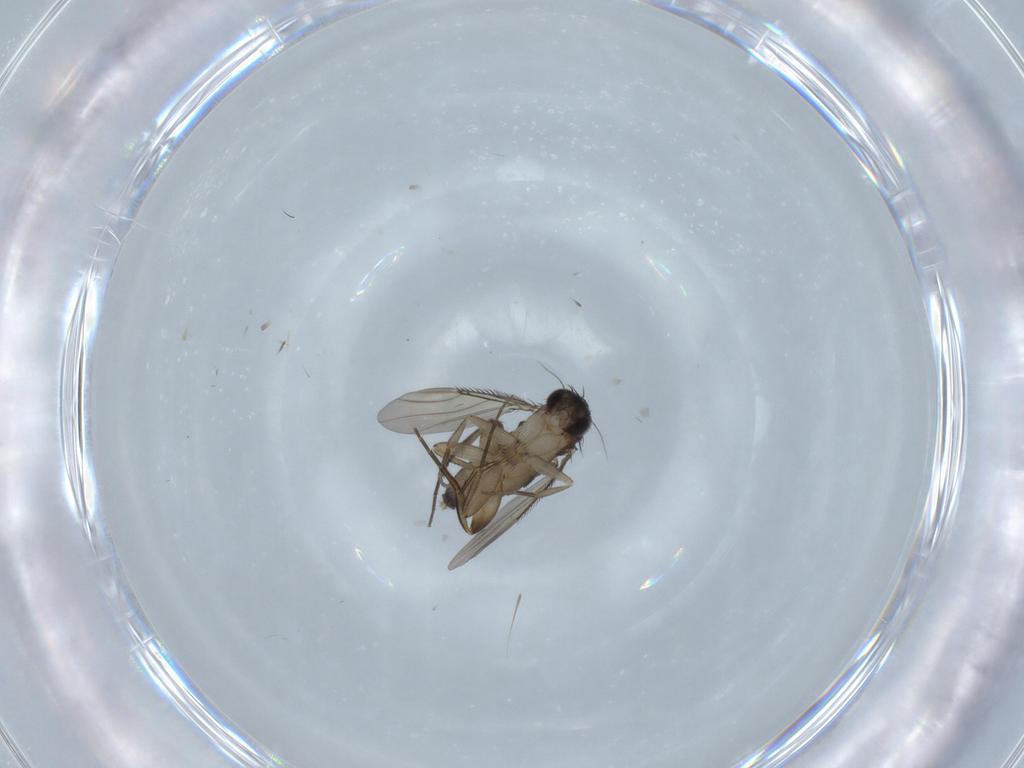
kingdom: Animalia
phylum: Arthropoda
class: Insecta
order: Diptera
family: Phoridae
